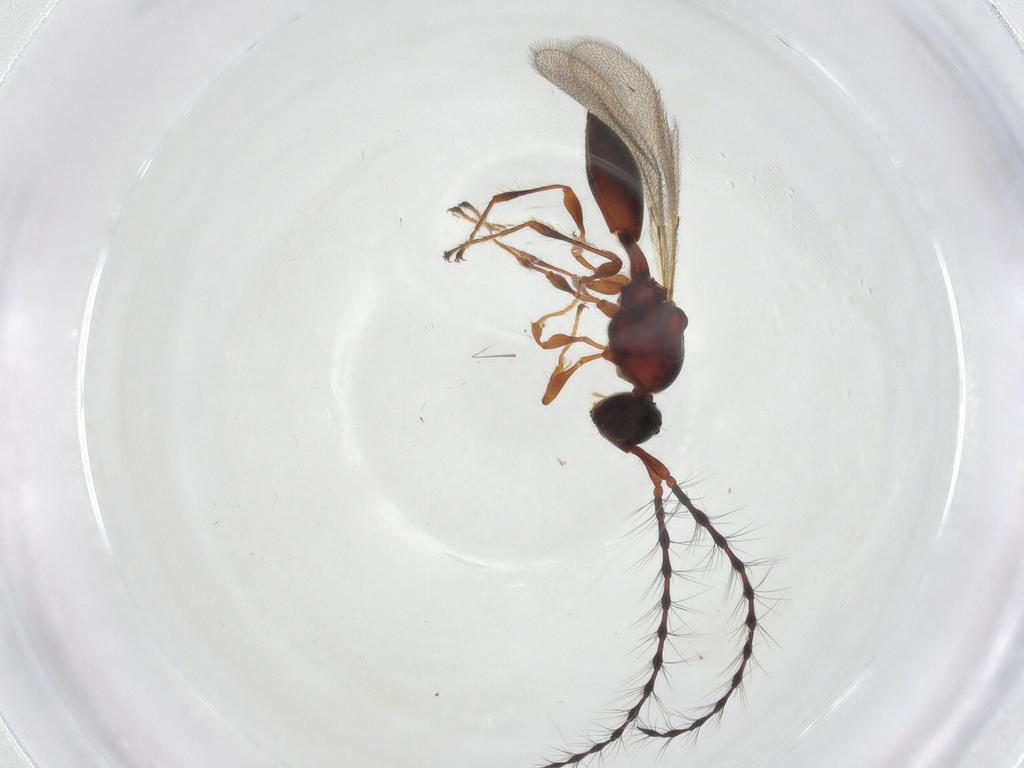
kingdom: Animalia
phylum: Arthropoda
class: Insecta
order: Hymenoptera
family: Diapriidae
